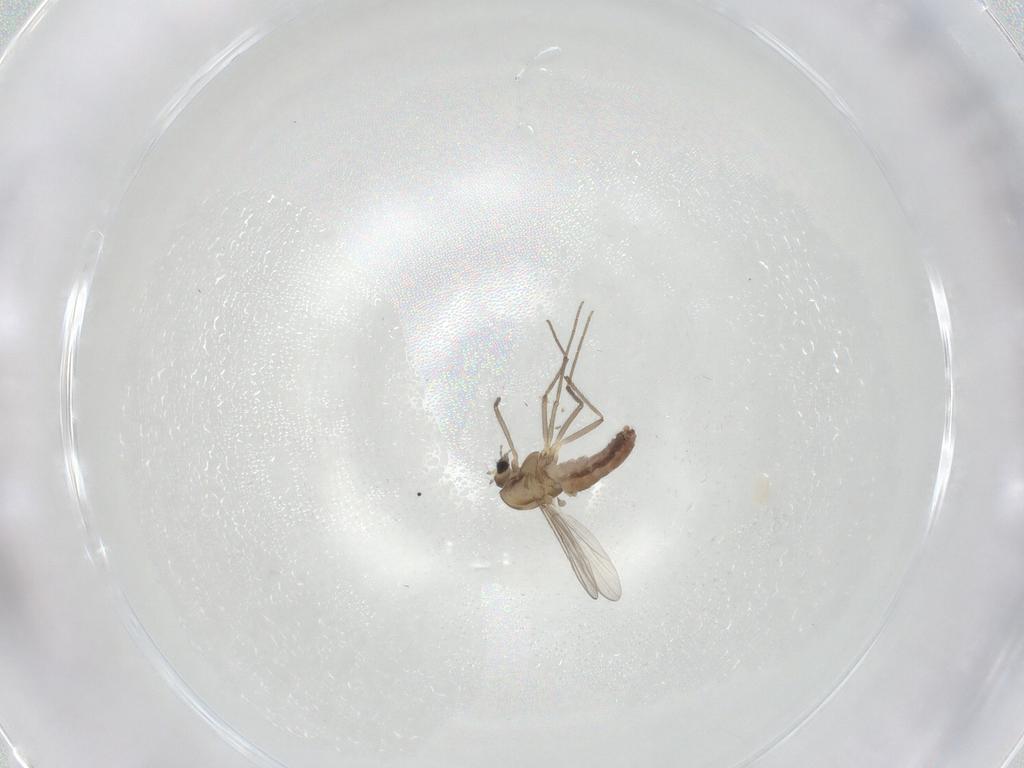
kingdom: Animalia
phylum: Arthropoda
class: Insecta
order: Diptera
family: Chironomidae
